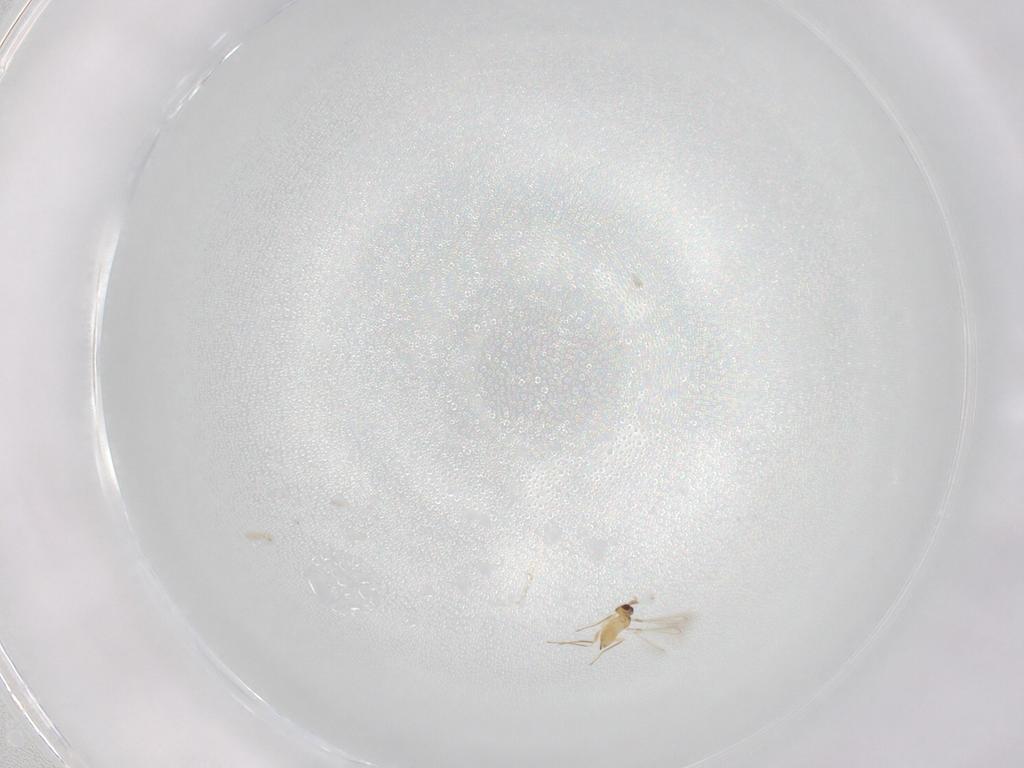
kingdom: Animalia
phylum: Arthropoda
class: Insecta
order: Hymenoptera
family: Mymaridae
